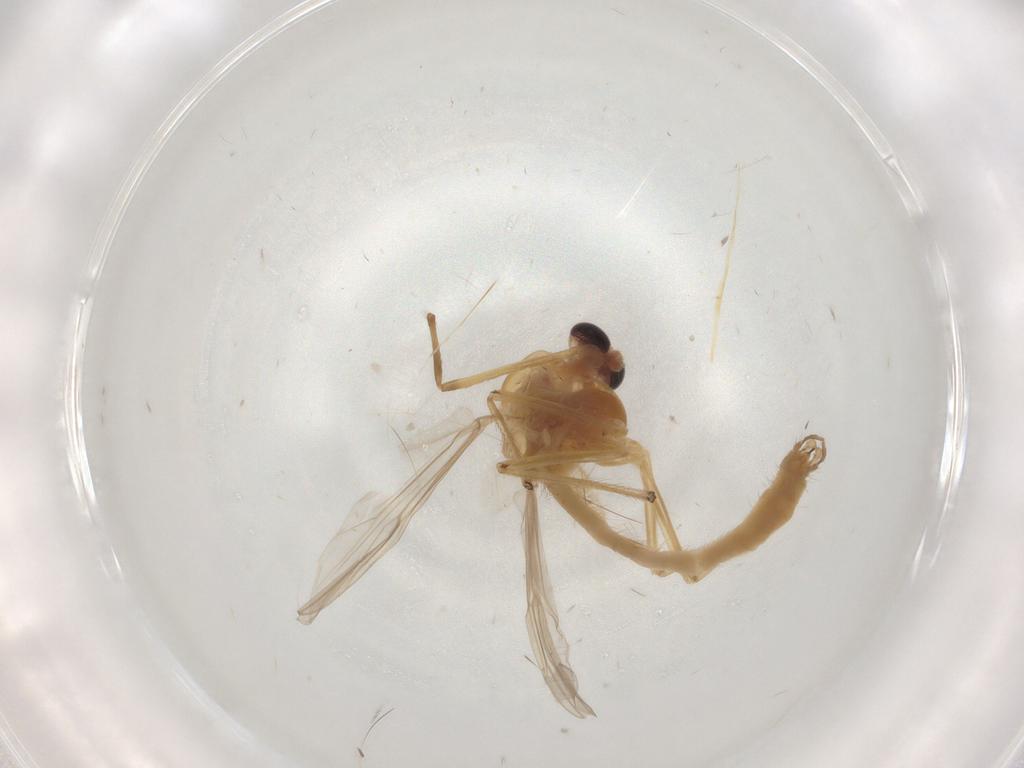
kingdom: Animalia
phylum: Arthropoda
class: Insecta
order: Diptera
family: Chironomidae
